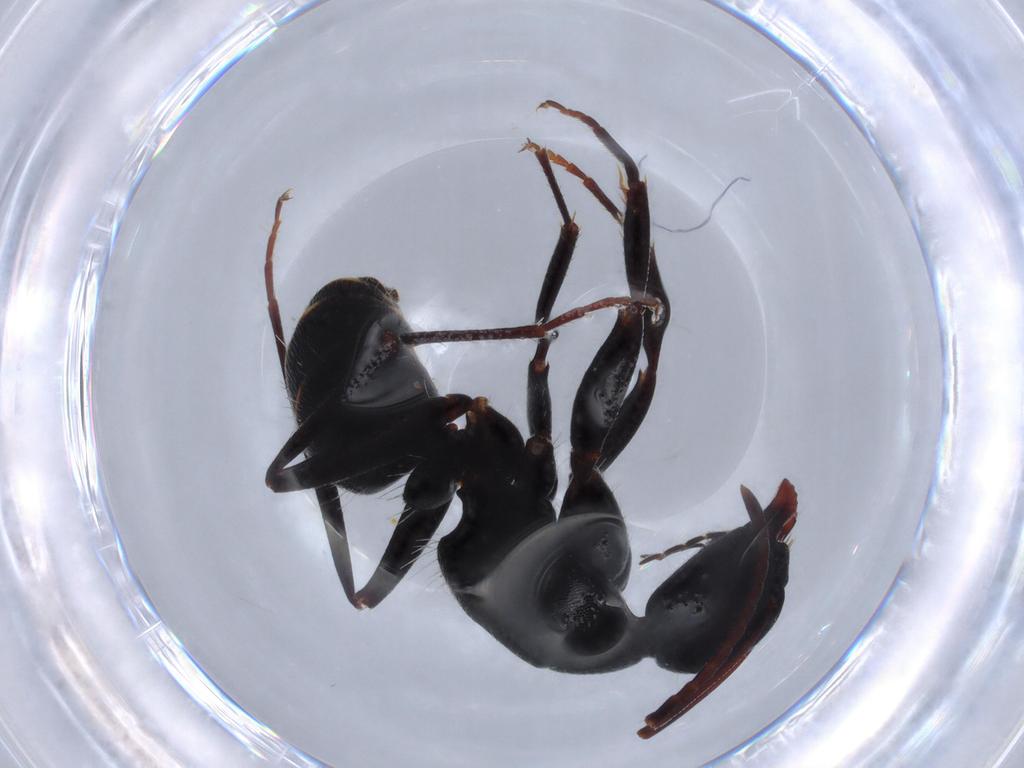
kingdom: Animalia
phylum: Arthropoda
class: Insecta
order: Hymenoptera
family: Formicidae
